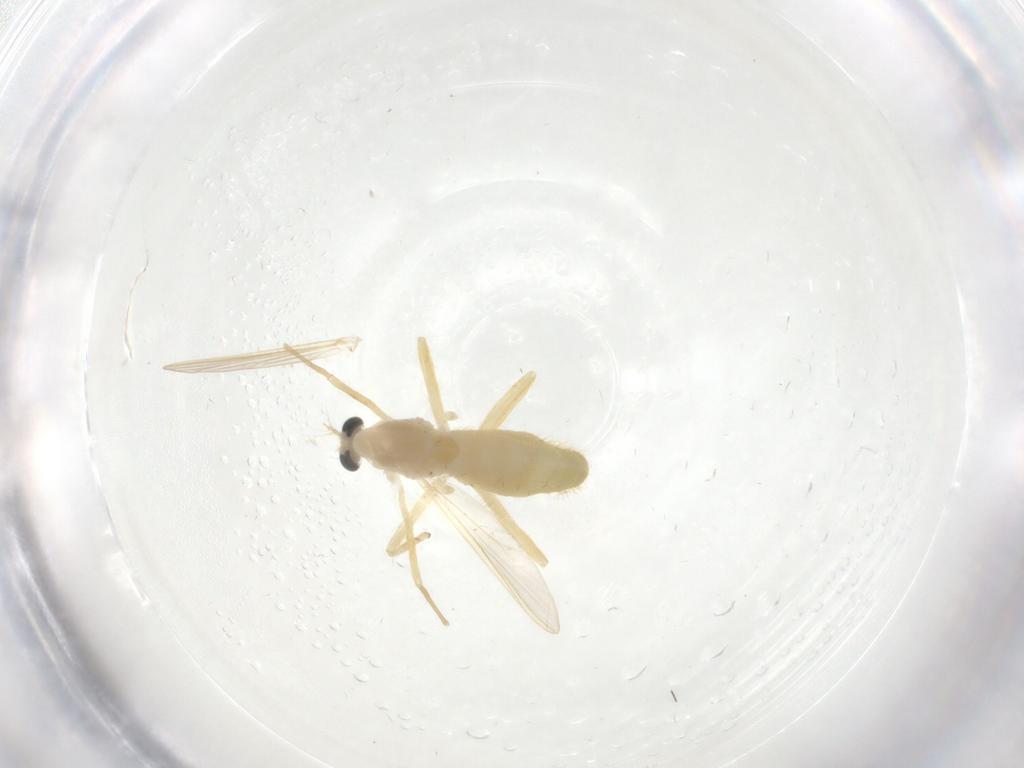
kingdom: Animalia
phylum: Arthropoda
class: Insecta
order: Diptera
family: Chironomidae
